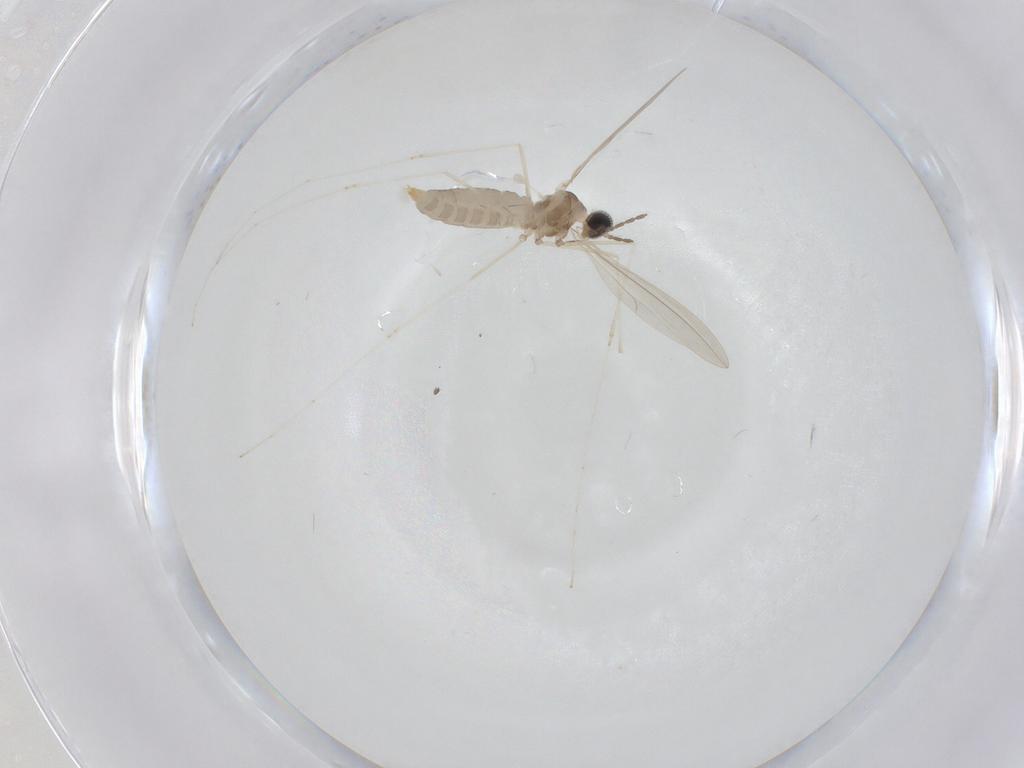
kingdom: Animalia
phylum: Arthropoda
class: Insecta
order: Diptera
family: Cecidomyiidae
